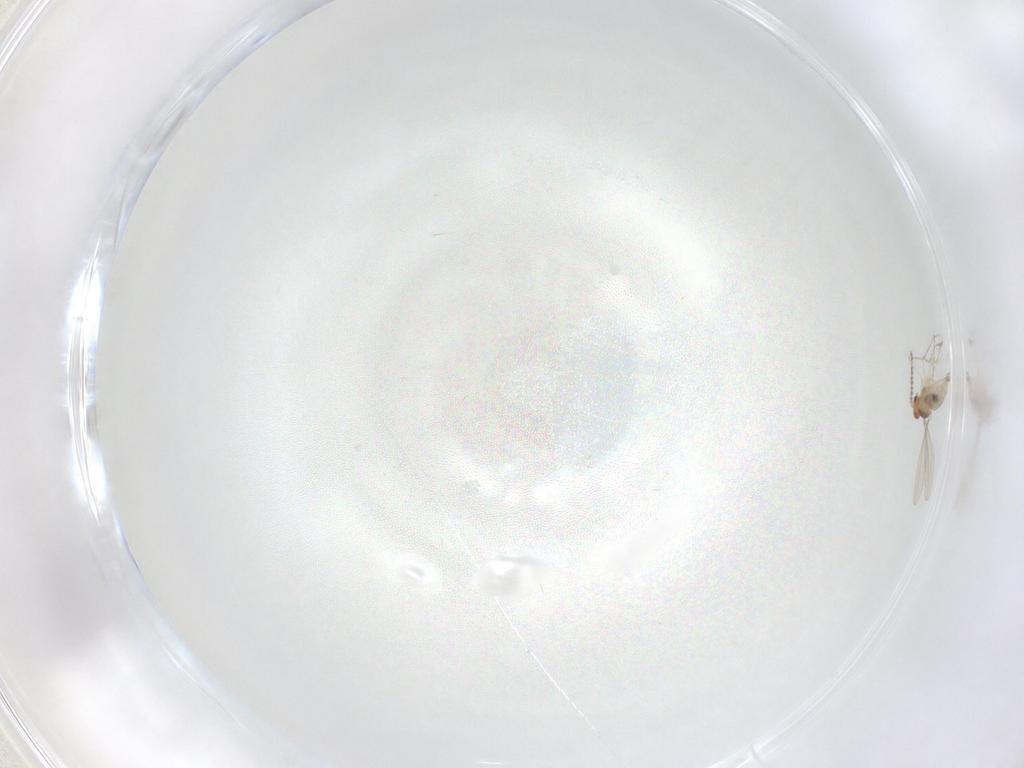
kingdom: Animalia
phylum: Arthropoda
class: Insecta
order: Diptera
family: Cecidomyiidae
